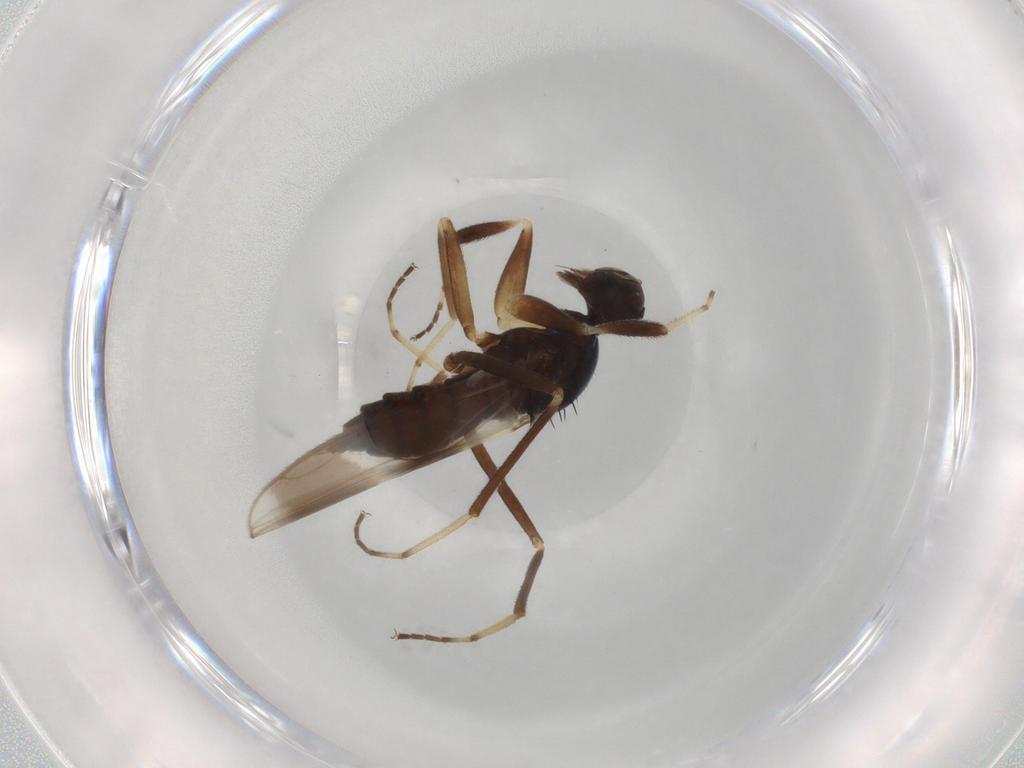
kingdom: Animalia
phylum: Arthropoda
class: Insecta
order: Diptera
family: Hybotidae
